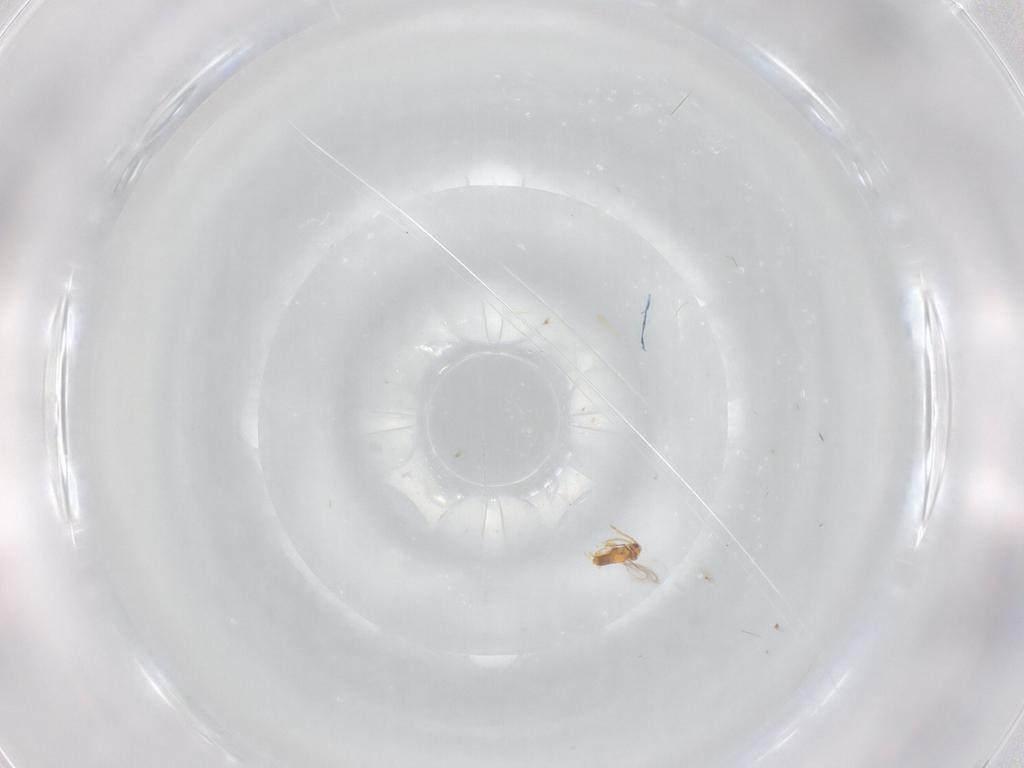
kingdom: Animalia
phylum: Arthropoda
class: Insecta
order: Hymenoptera
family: Aphelinidae
